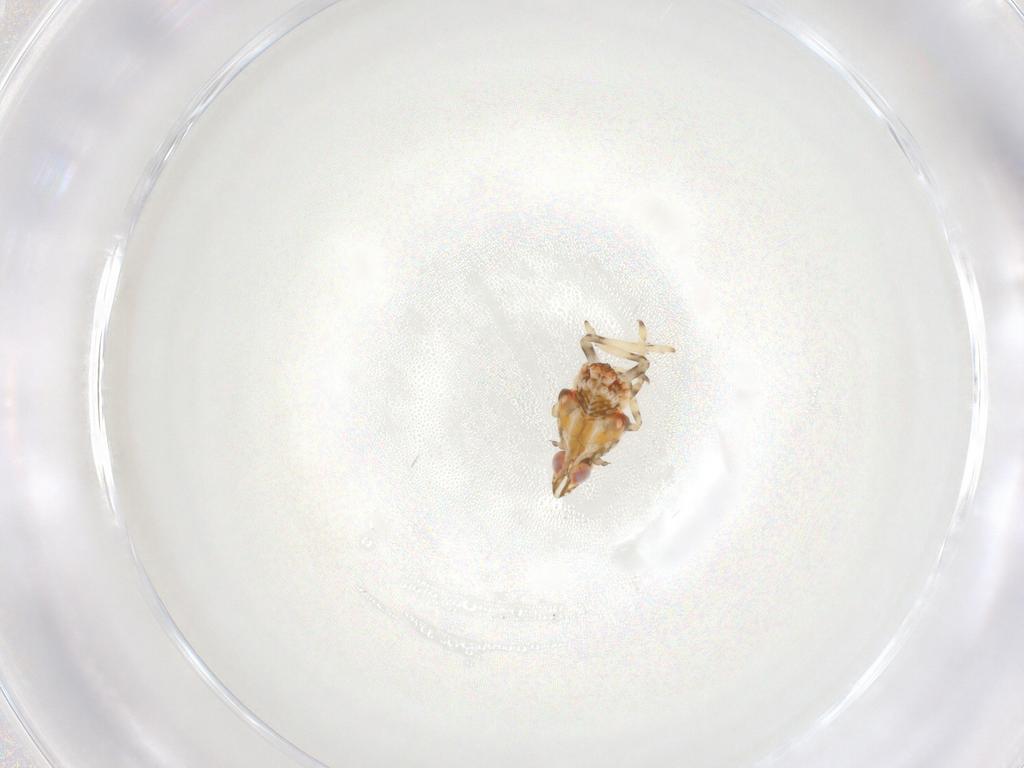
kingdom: Animalia
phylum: Arthropoda
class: Insecta
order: Hemiptera
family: Tropiduchidae
